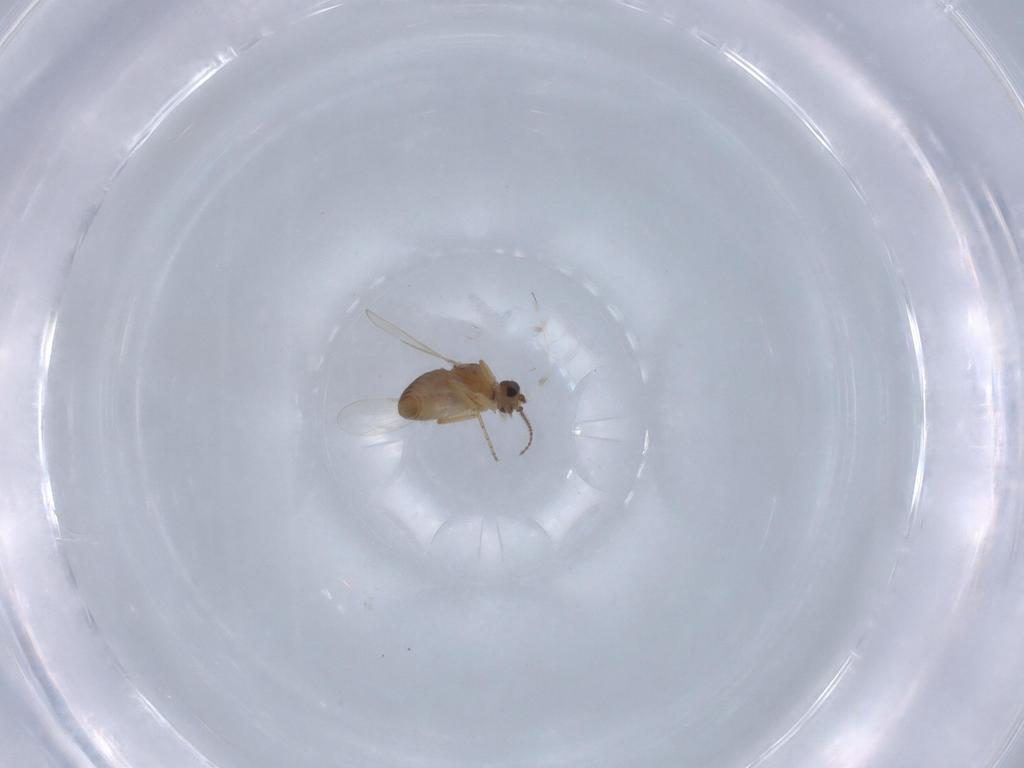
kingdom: Animalia
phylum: Arthropoda
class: Insecta
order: Diptera
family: Ceratopogonidae
